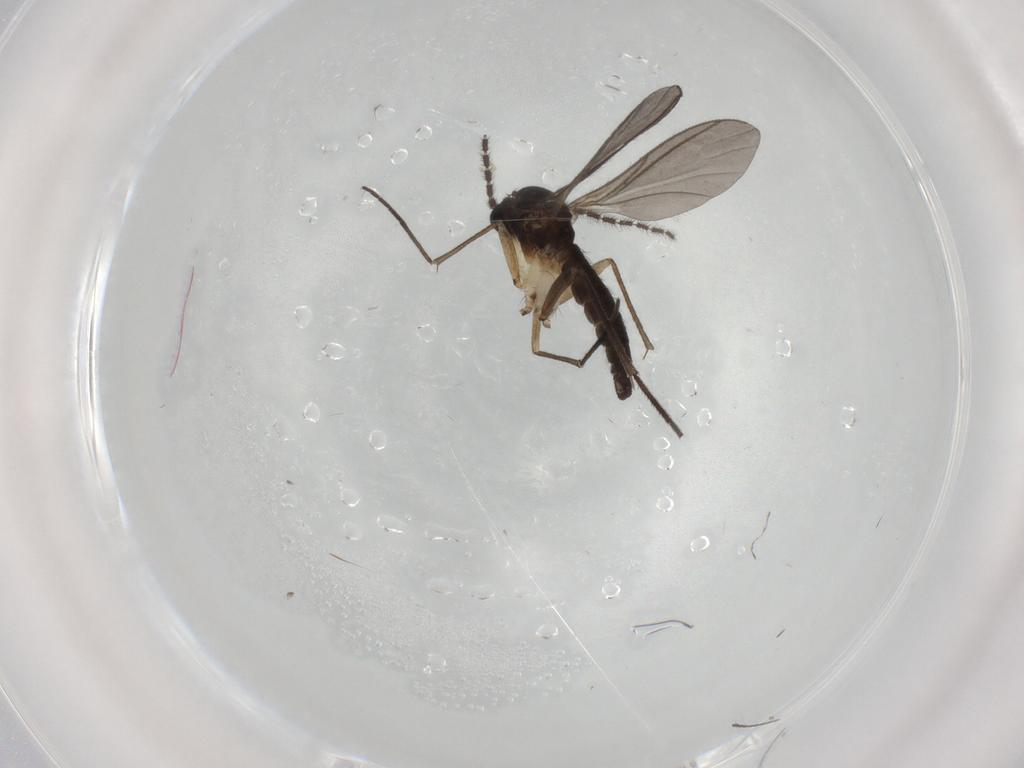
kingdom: Animalia
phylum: Arthropoda
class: Insecta
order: Diptera
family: Sciaridae
